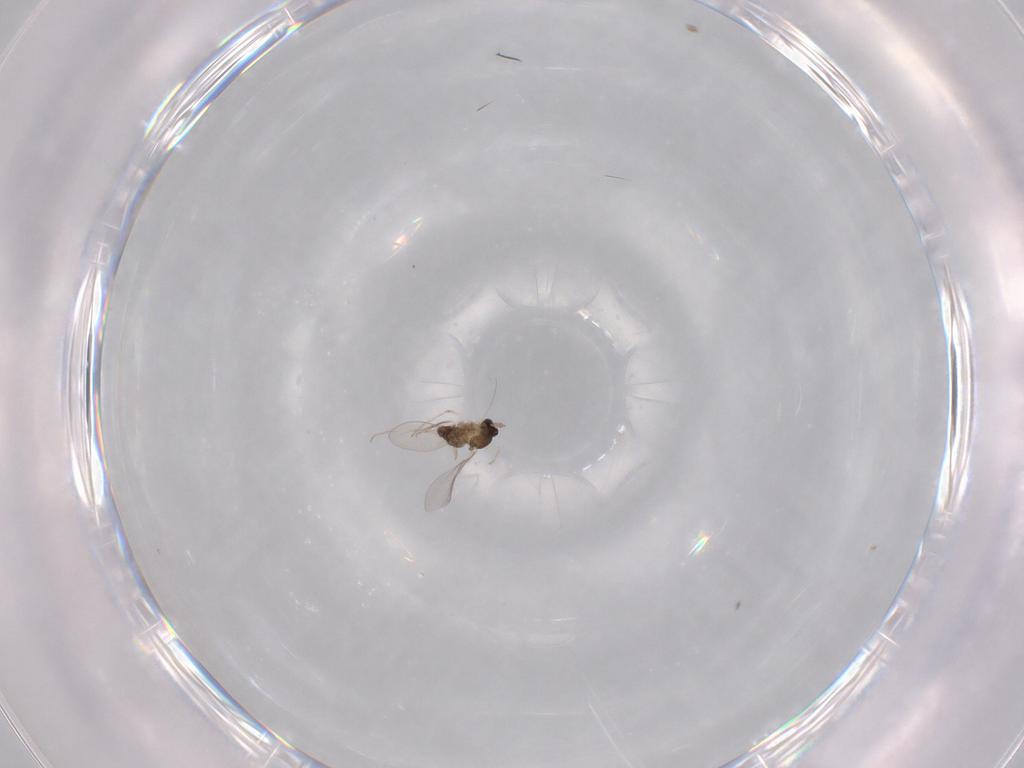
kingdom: Animalia
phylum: Arthropoda
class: Insecta
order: Diptera
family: Cecidomyiidae
